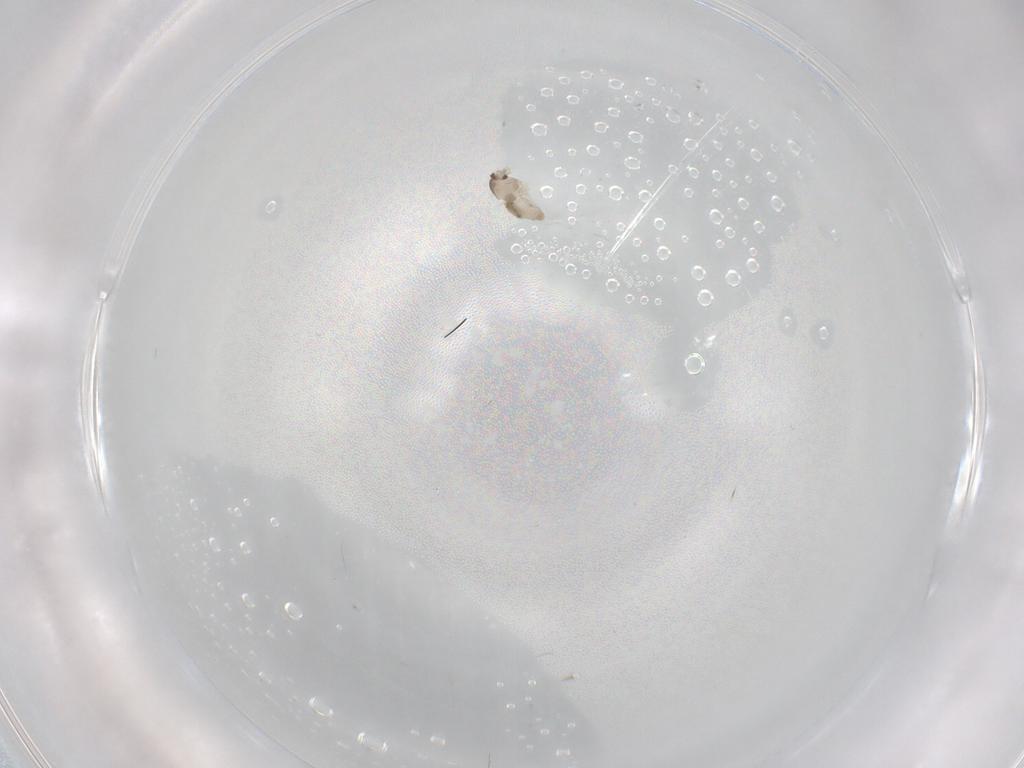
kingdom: Animalia
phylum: Arthropoda
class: Insecta
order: Diptera
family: Cecidomyiidae
